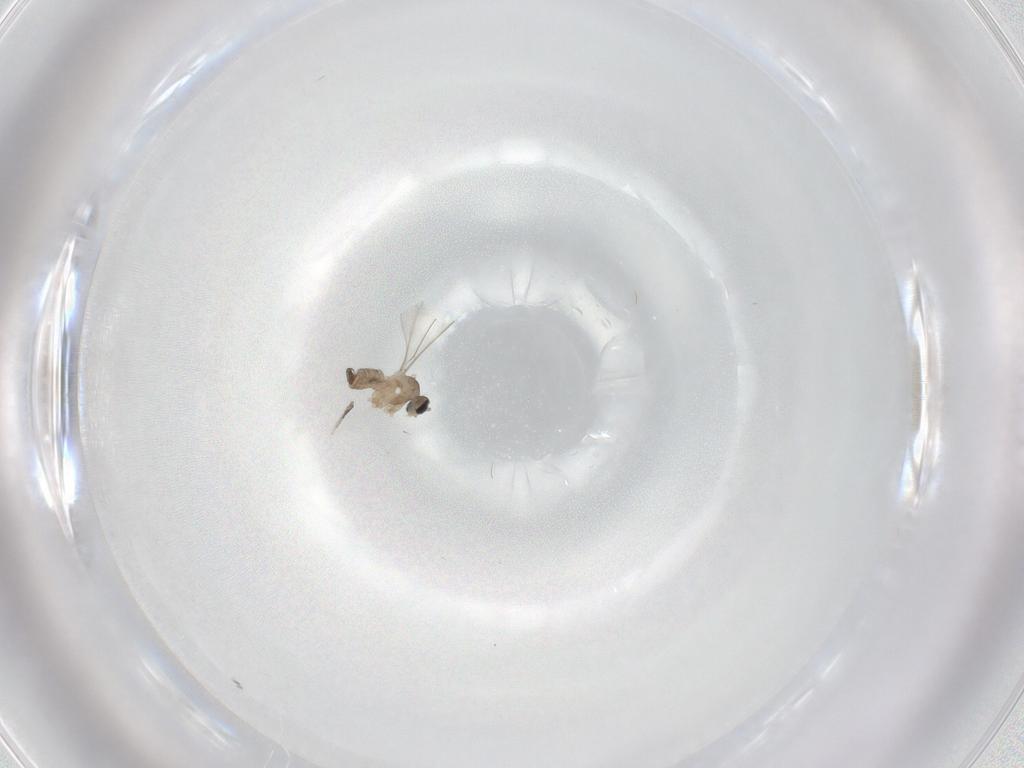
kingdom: Animalia
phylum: Arthropoda
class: Insecta
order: Diptera
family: Cecidomyiidae
